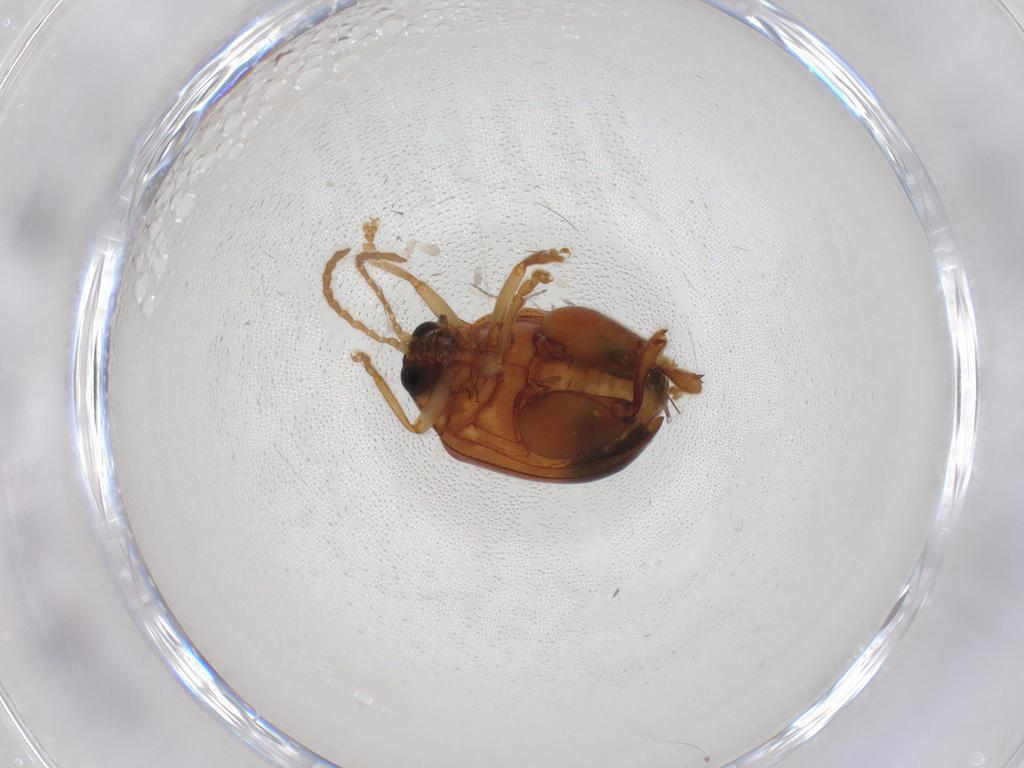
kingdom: Animalia
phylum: Arthropoda
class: Insecta
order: Coleoptera
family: Chrysomelidae
